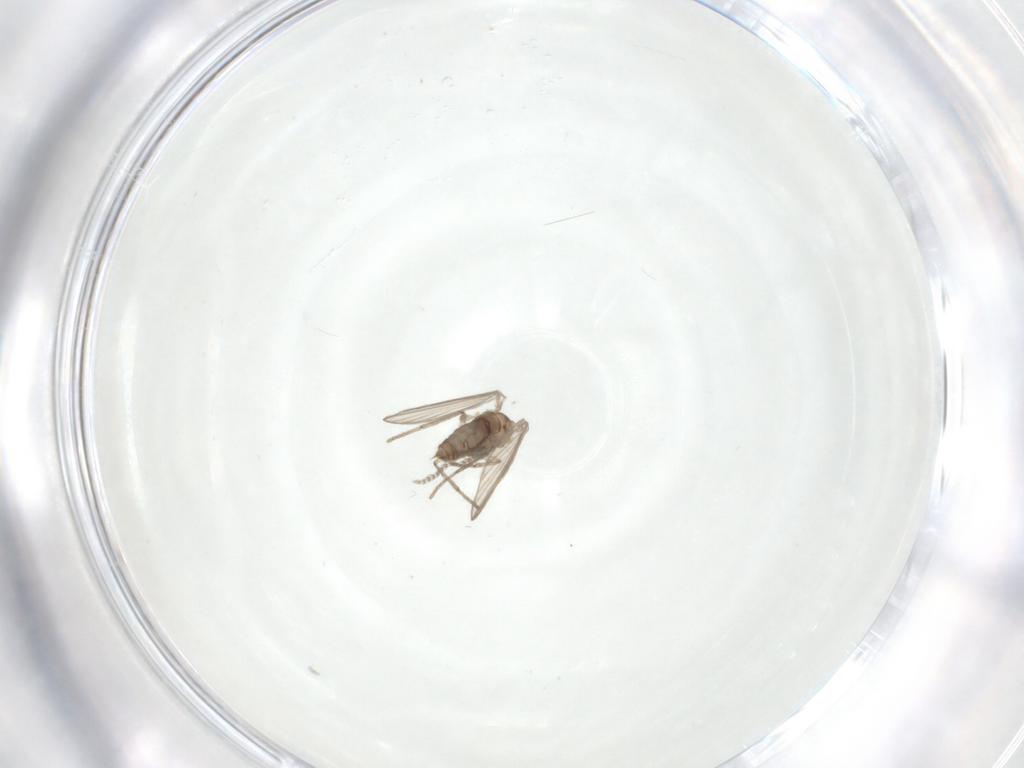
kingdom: Animalia
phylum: Arthropoda
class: Insecta
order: Diptera
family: Psychodidae
